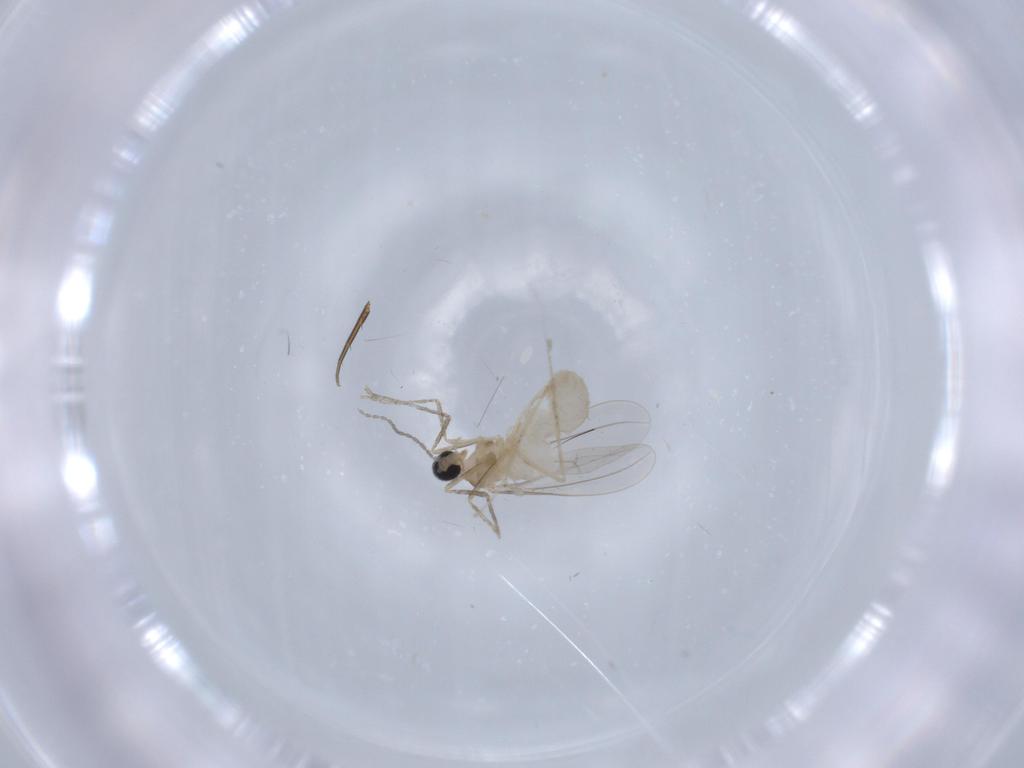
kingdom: Animalia
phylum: Arthropoda
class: Insecta
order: Diptera
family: Cecidomyiidae
